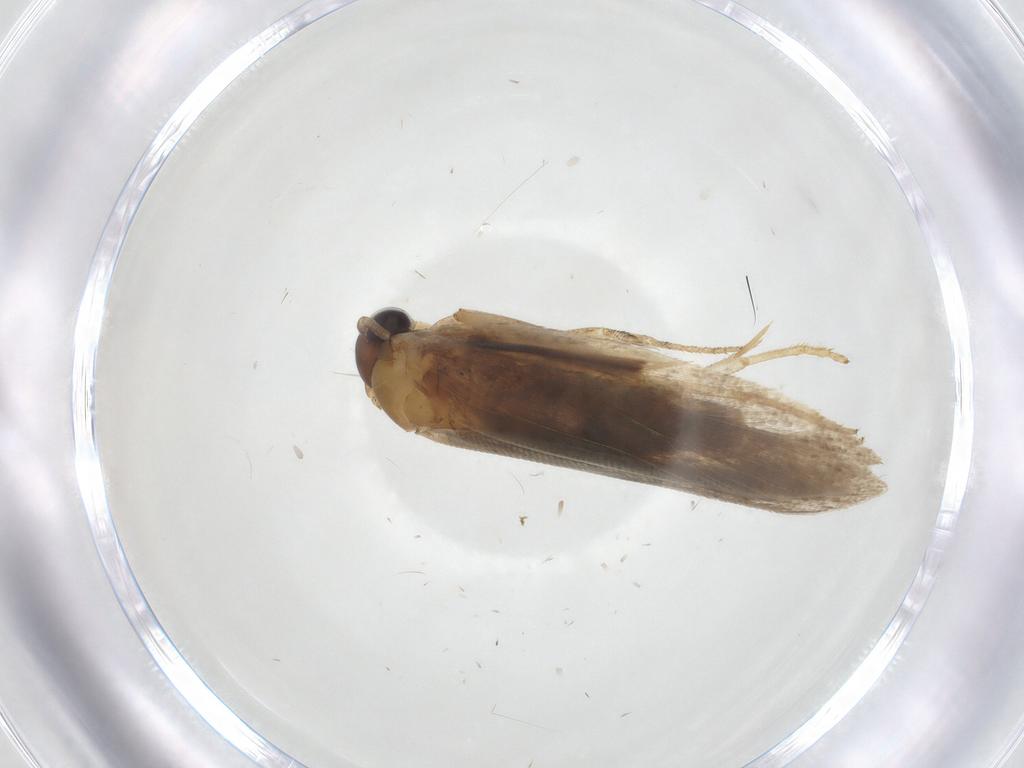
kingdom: Animalia
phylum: Arthropoda
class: Insecta
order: Lepidoptera
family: Gelechiidae
